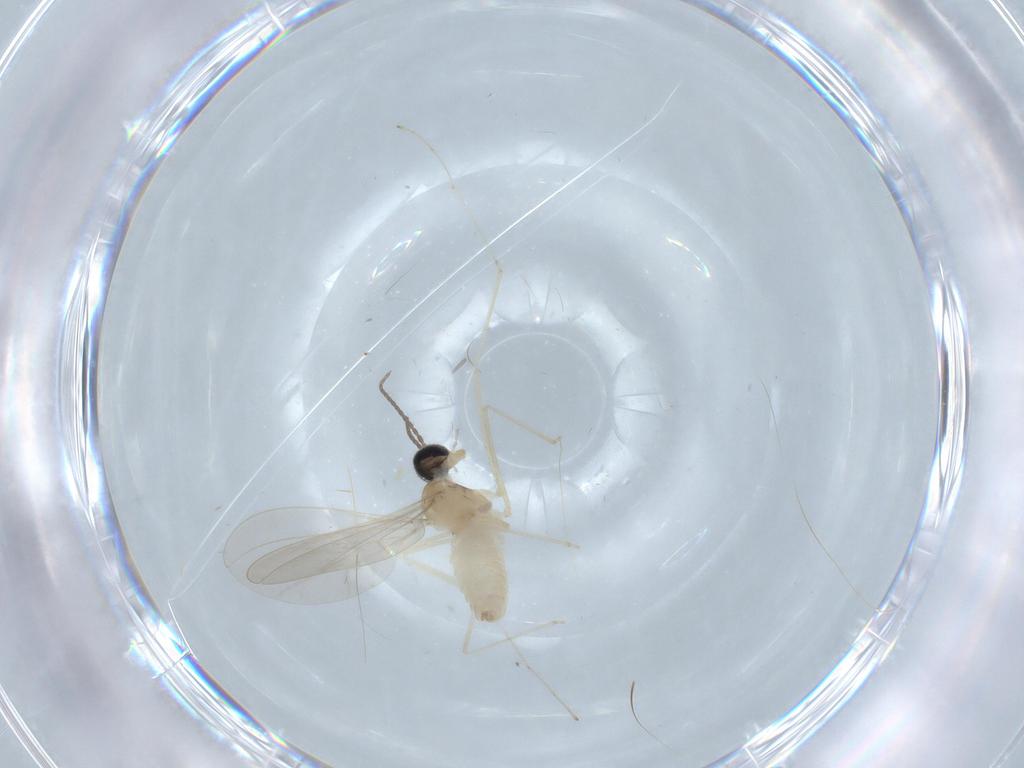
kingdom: Animalia
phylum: Arthropoda
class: Insecta
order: Diptera
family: Cecidomyiidae
